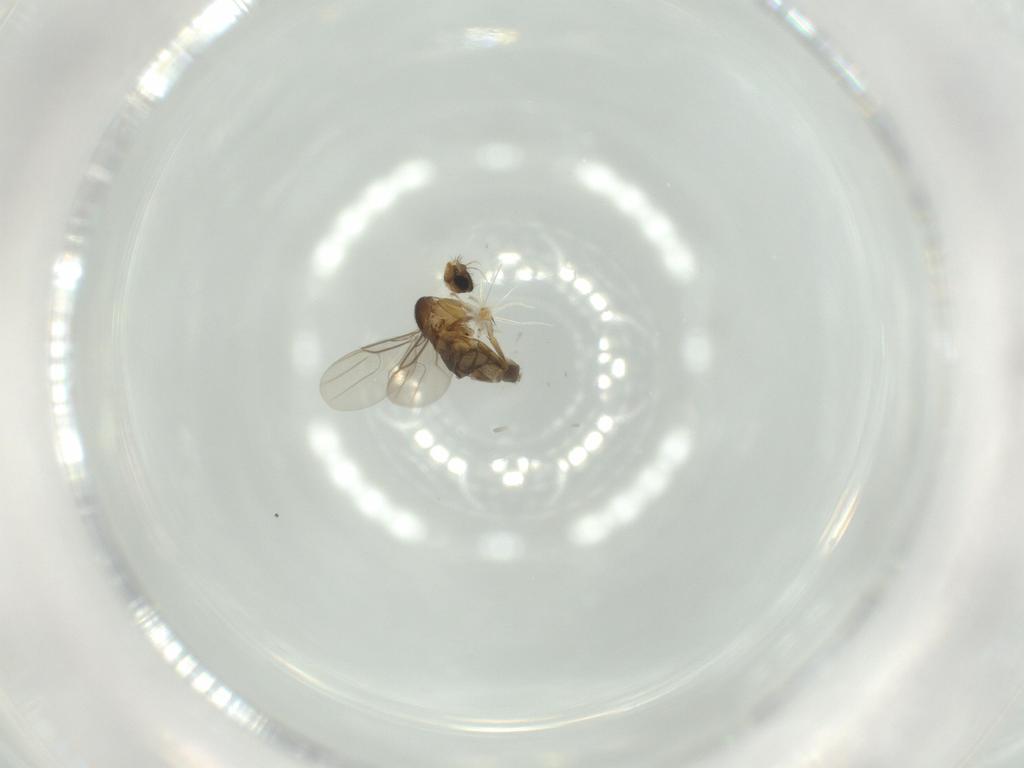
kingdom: Animalia
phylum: Arthropoda
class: Insecta
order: Diptera
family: Phoridae
